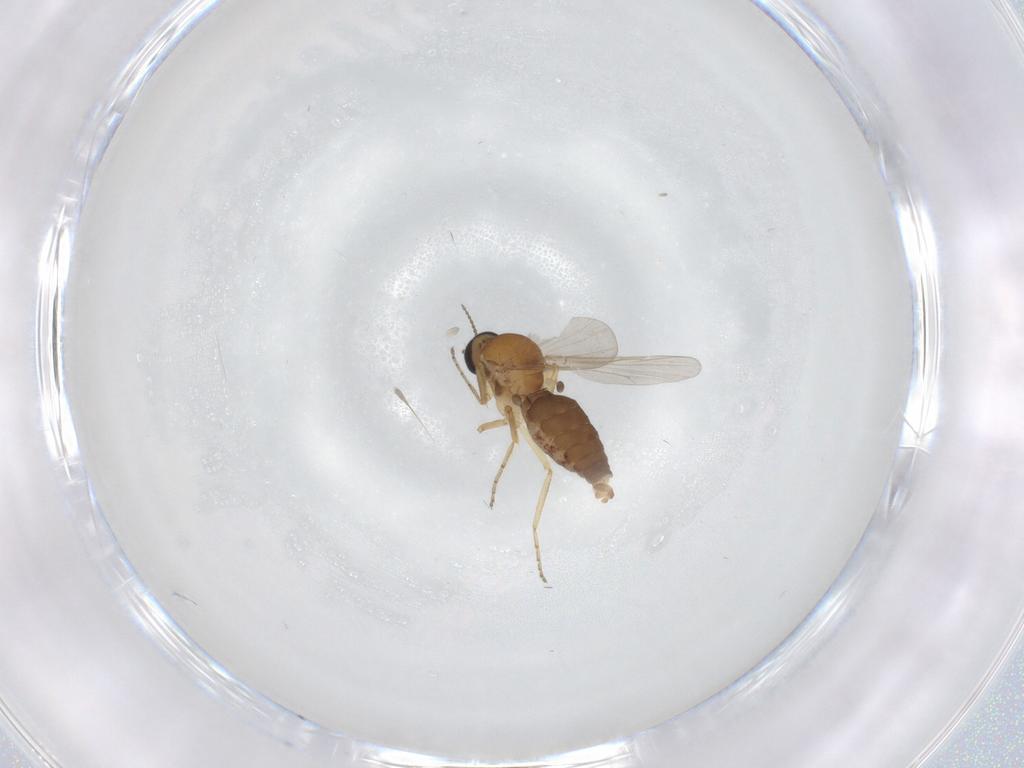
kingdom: Animalia
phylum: Arthropoda
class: Insecta
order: Diptera
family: Ceratopogonidae
